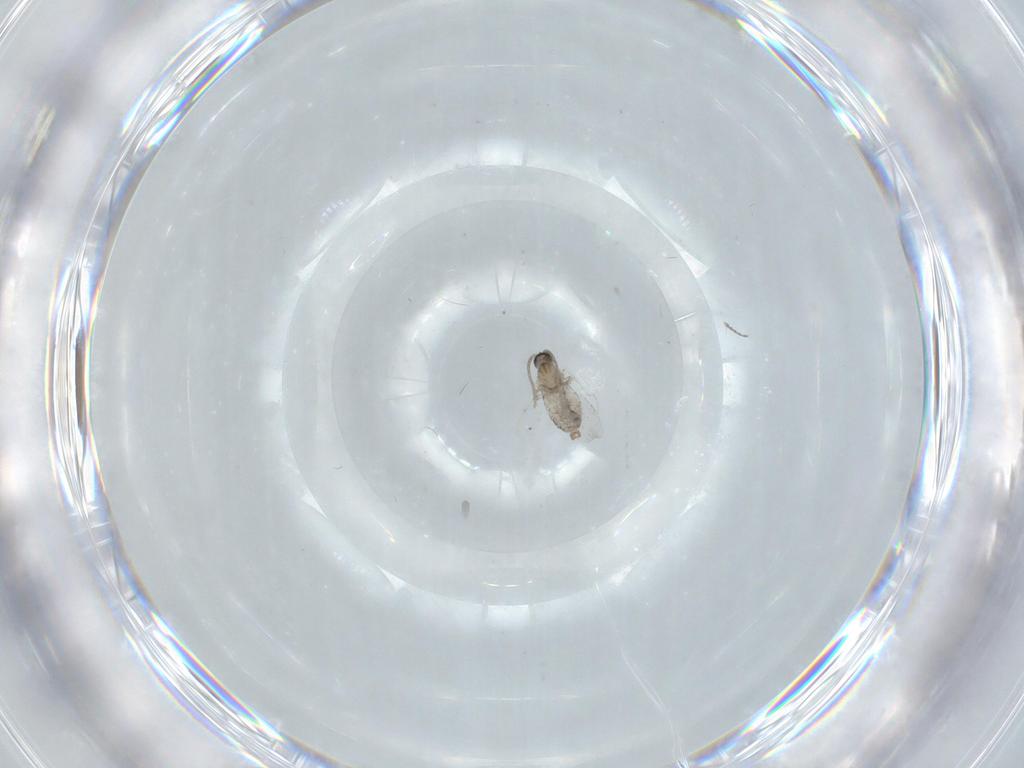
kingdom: Animalia
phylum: Arthropoda
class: Insecta
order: Diptera
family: Cecidomyiidae
